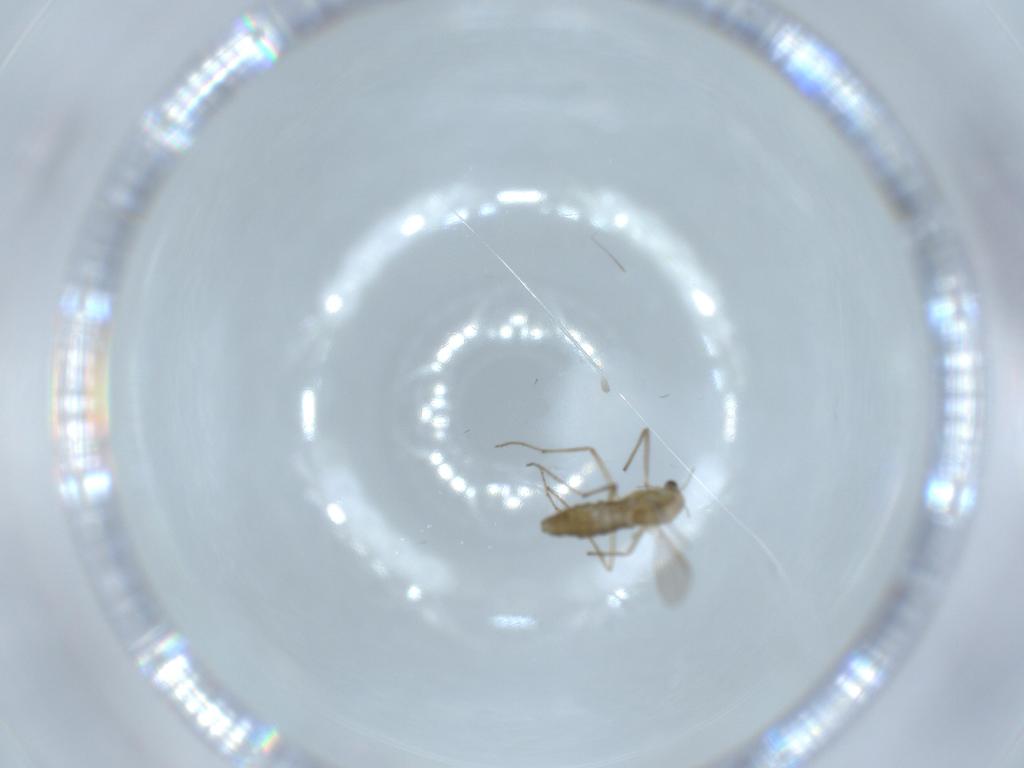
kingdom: Animalia
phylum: Arthropoda
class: Insecta
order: Diptera
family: Chironomidae
